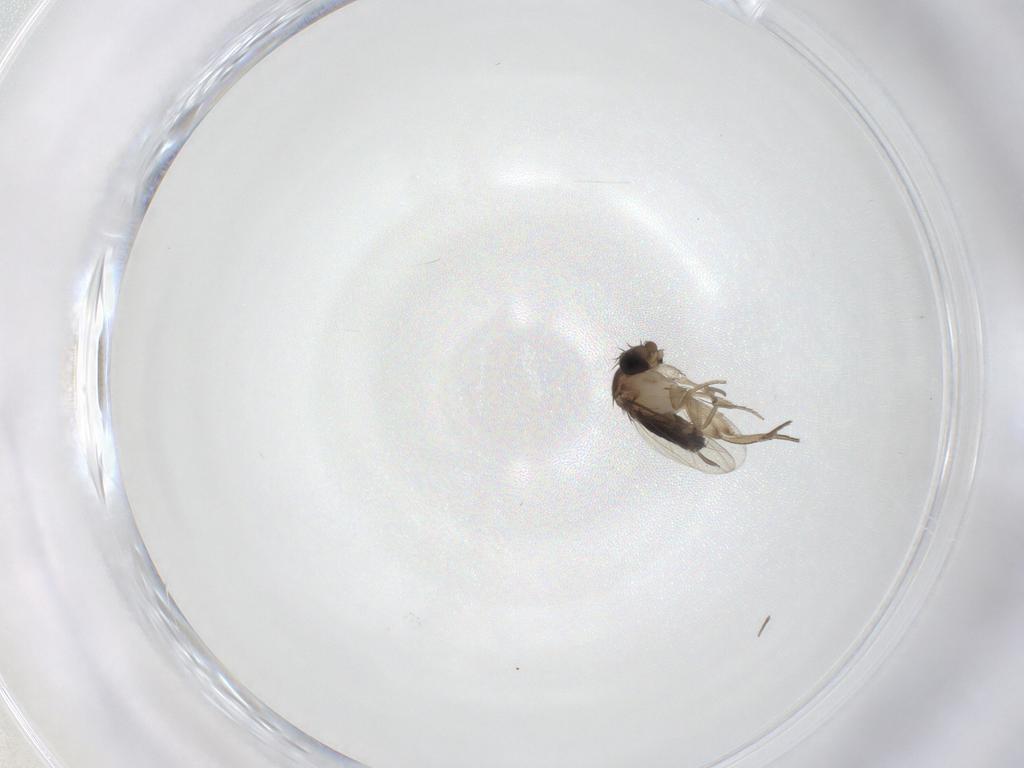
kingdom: Animalia
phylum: Arthropoda
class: Insecta
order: Diptera
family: Psychodidae
